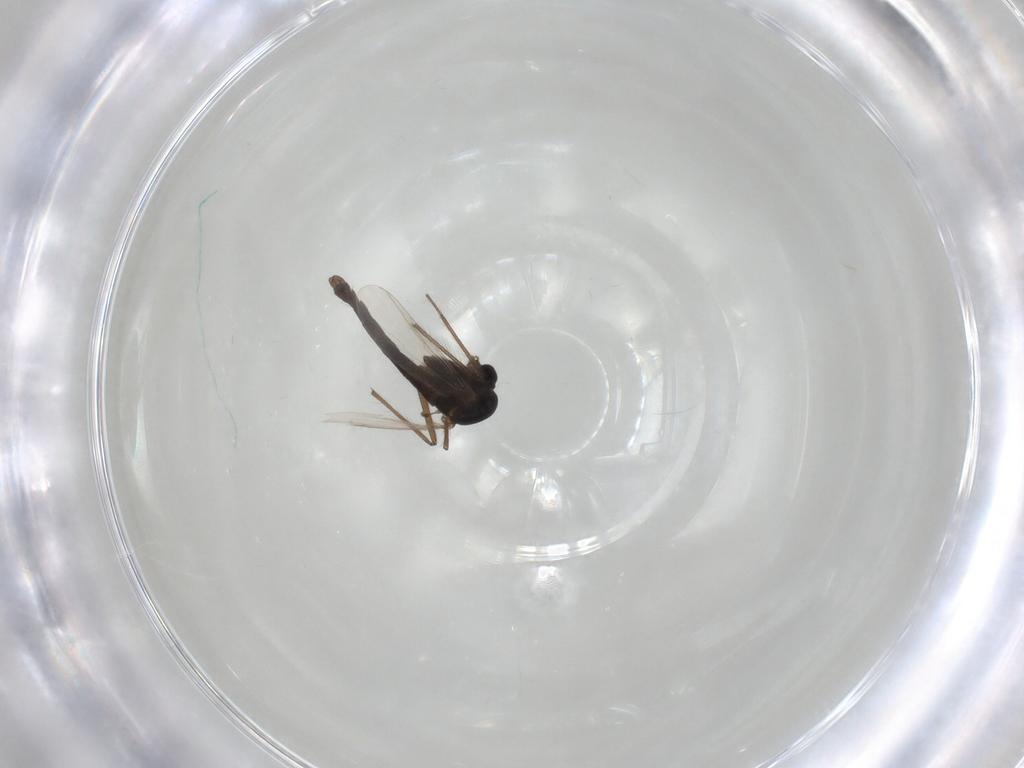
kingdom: Animalia
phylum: Arthropoda
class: Insecta
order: Diptera
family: Chironomidae
